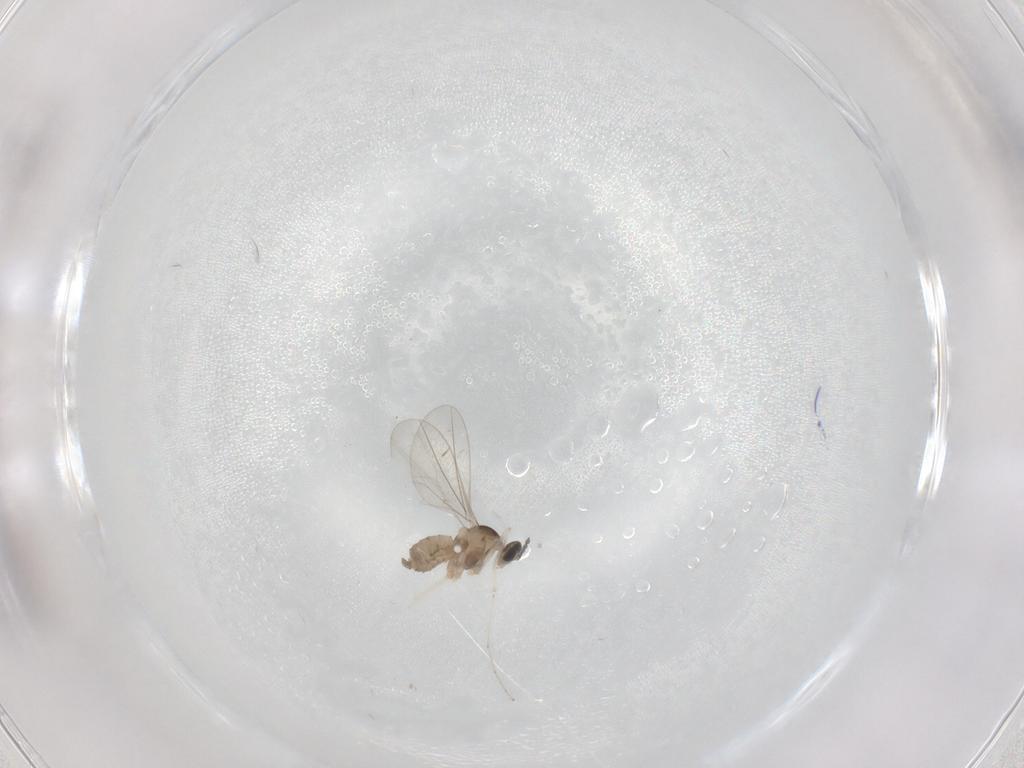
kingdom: Animalia
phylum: Arthropoda
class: Insecta
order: Diptera
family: Cecidomyiidae
